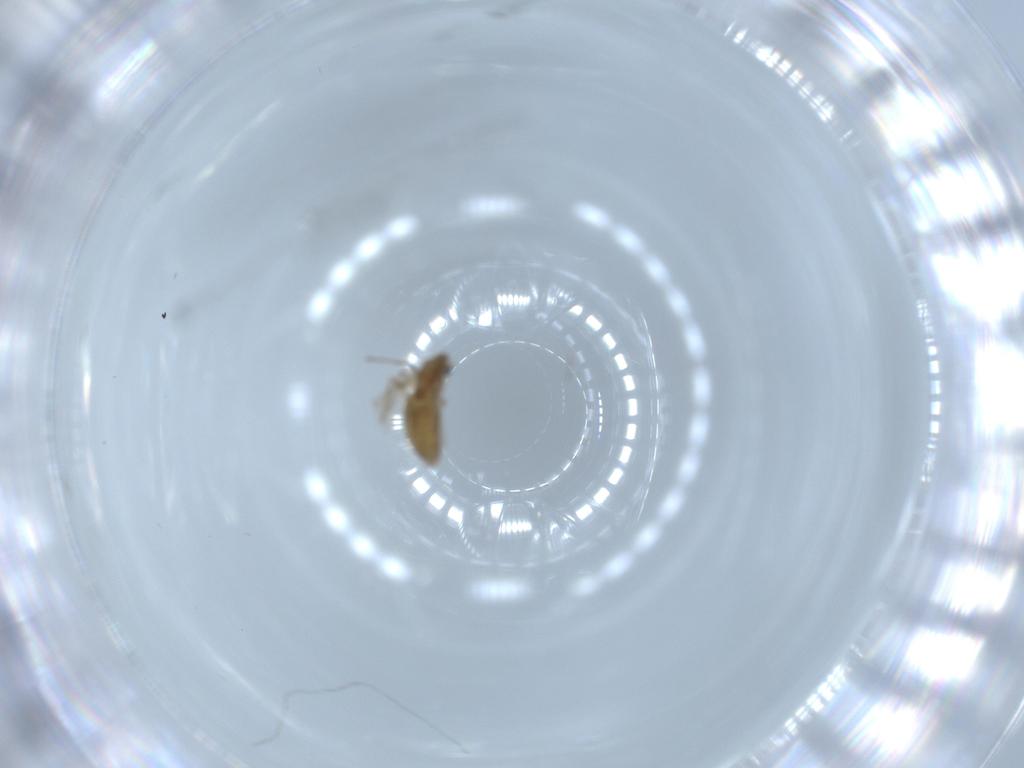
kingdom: Animalia
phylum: Arthropoda
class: Insecta
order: Diptera
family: Chironomidae
